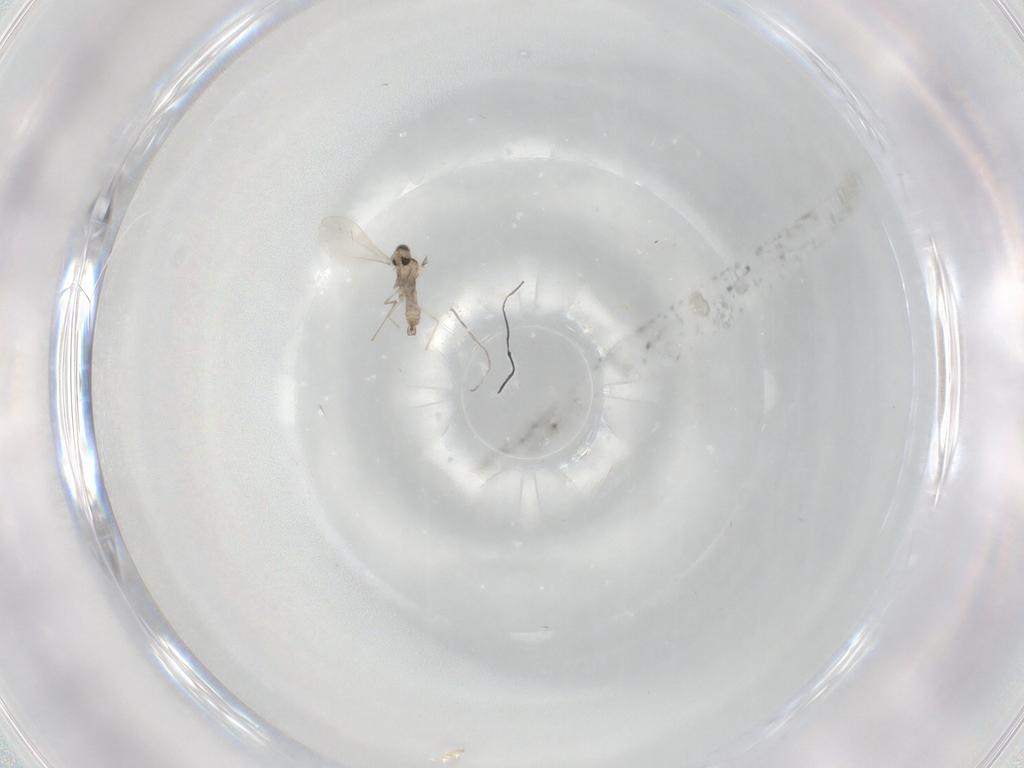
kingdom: Animalia
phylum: Arthropoda
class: Insecta
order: Diptera
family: Cecidomyiidae
